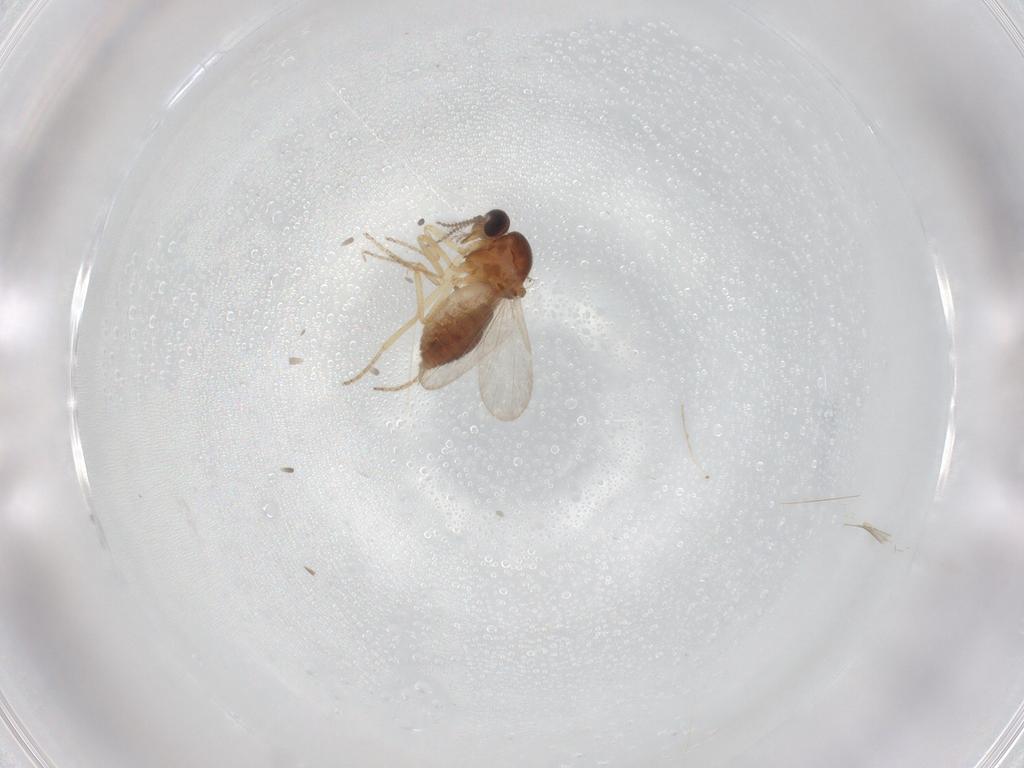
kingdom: Animalia
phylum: Arthropoda
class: Insecta
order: Diptera
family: Ceratopogonidae
